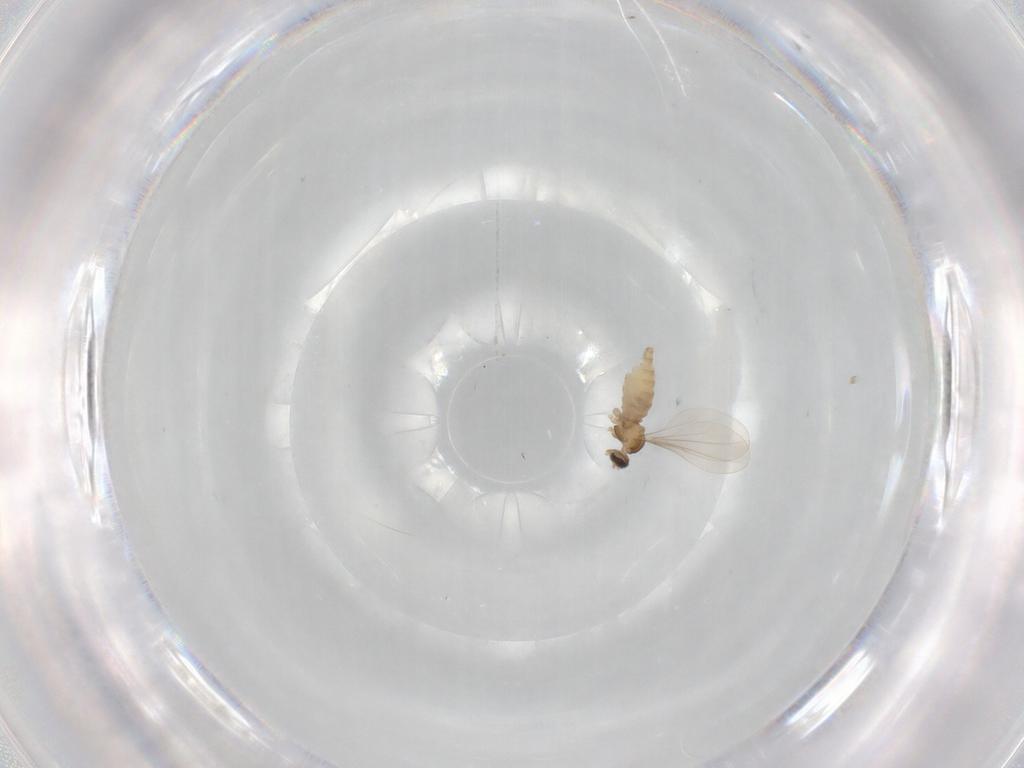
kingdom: Animalia
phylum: Arthropoda
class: Insecta
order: Diptera
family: Cecidomyiidae
